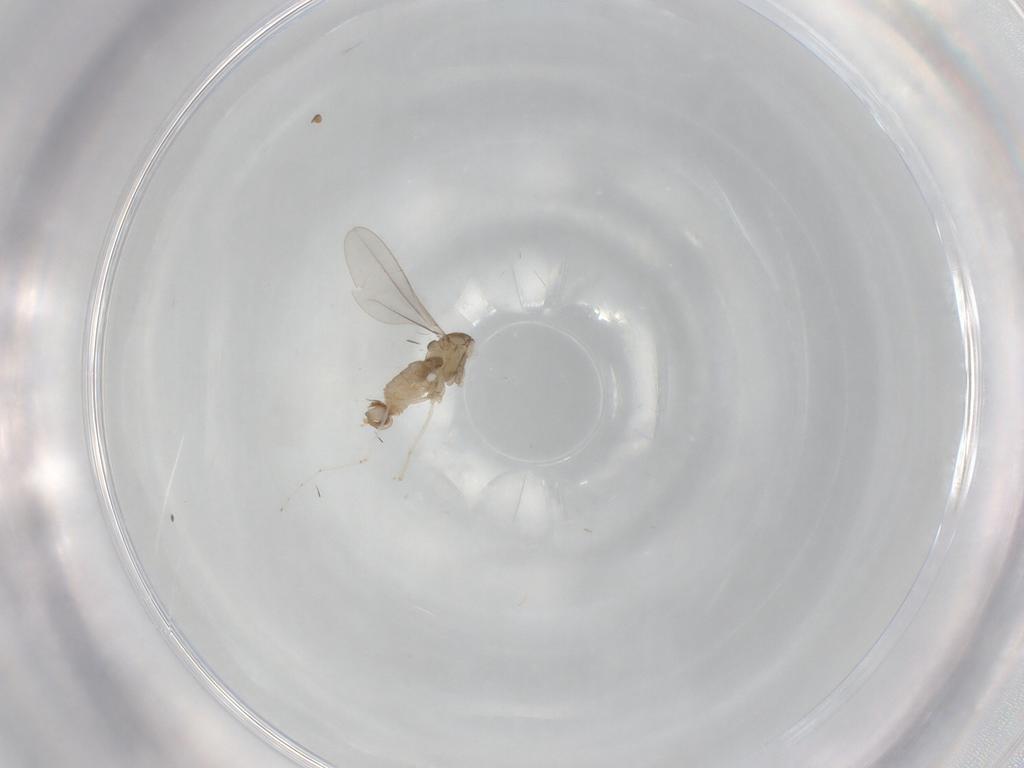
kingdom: Animalia
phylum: Arthropoda
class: Insecta
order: Diptera
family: Cecidomyiidae
